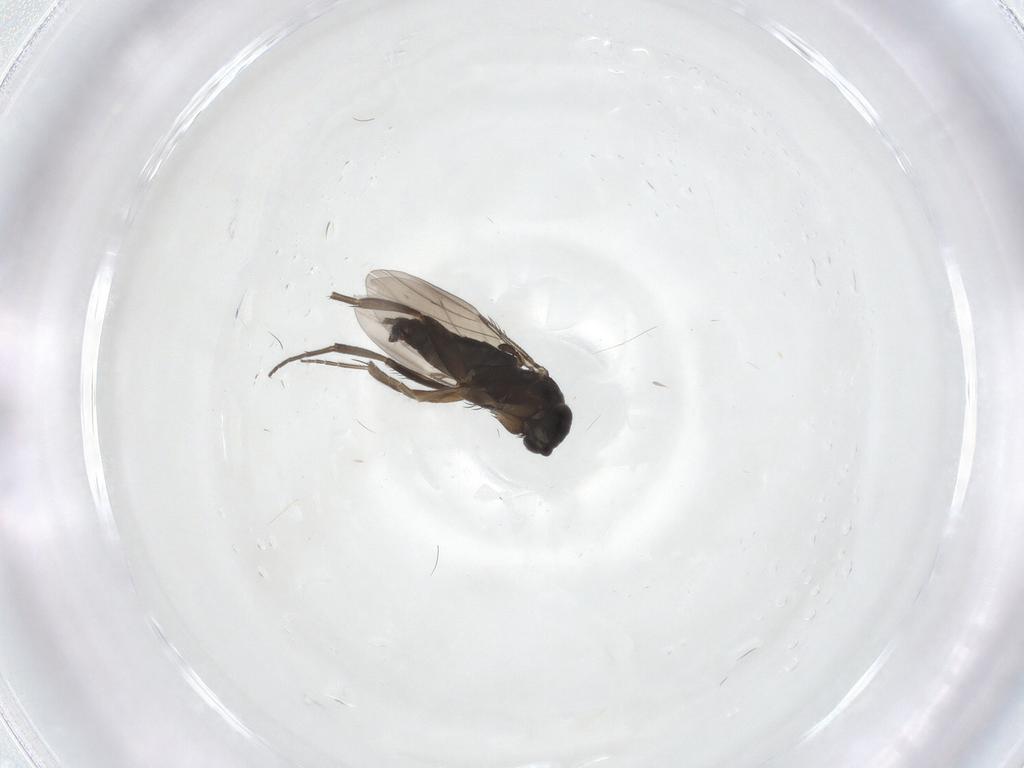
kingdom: Animalia
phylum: Arthropoda
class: Insecta
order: Diptera
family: Phoridae
